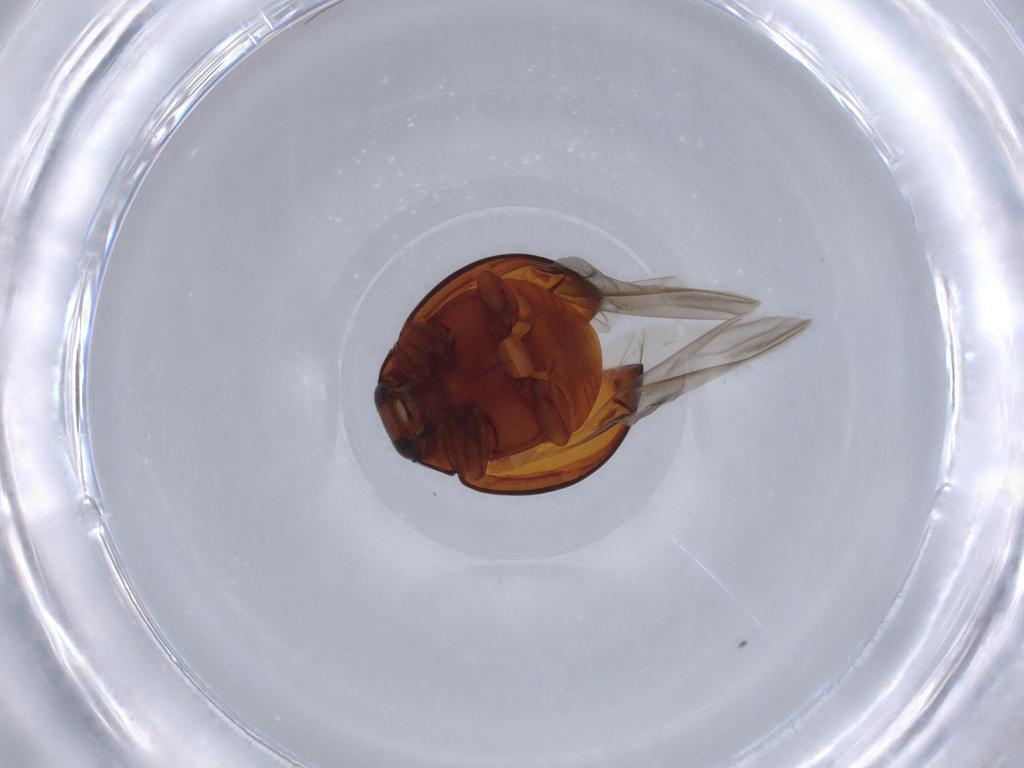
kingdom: Animalia
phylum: Arthropoda
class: Insecta
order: Coleoptera
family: Coccinellidae
